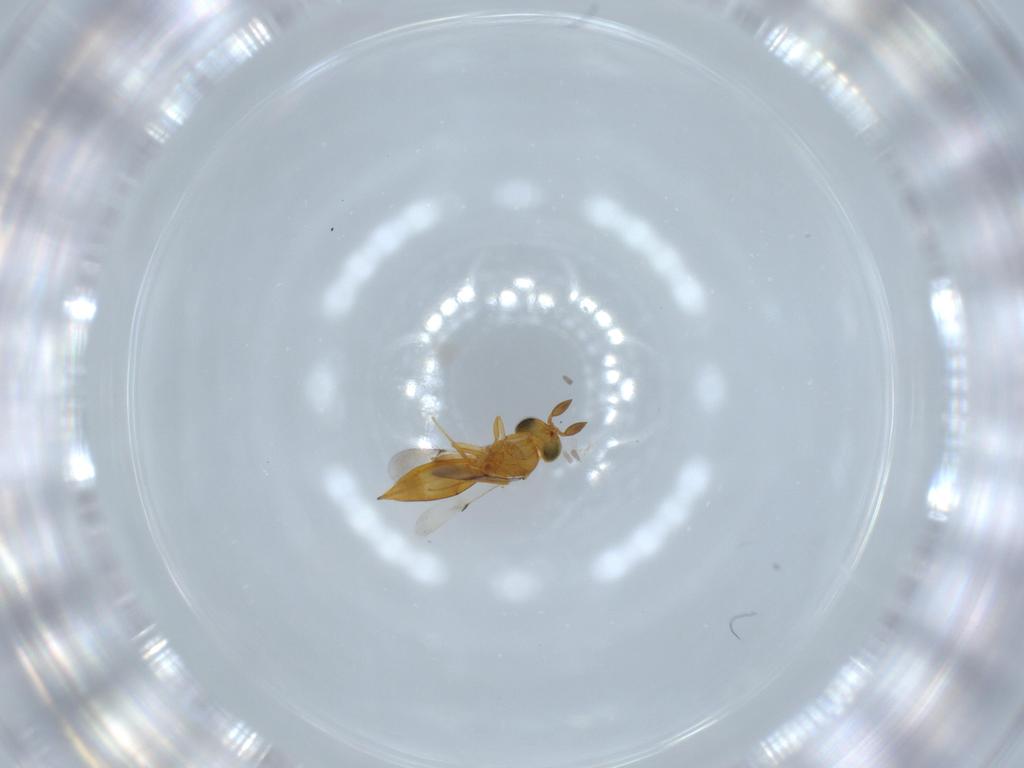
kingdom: Animalia
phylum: Arthropoda
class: Insecta
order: Hymenoptera
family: Scelionidae
